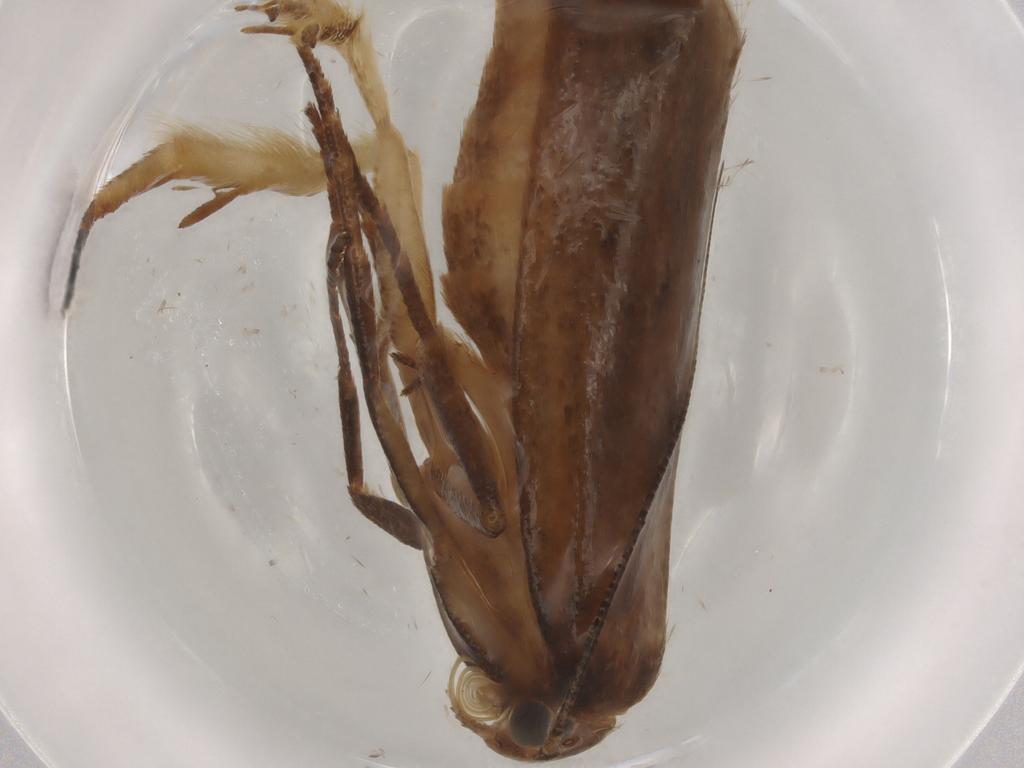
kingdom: Animalia
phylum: Arthropoda
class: Insecta
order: Lepidoptera
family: Erebidae
